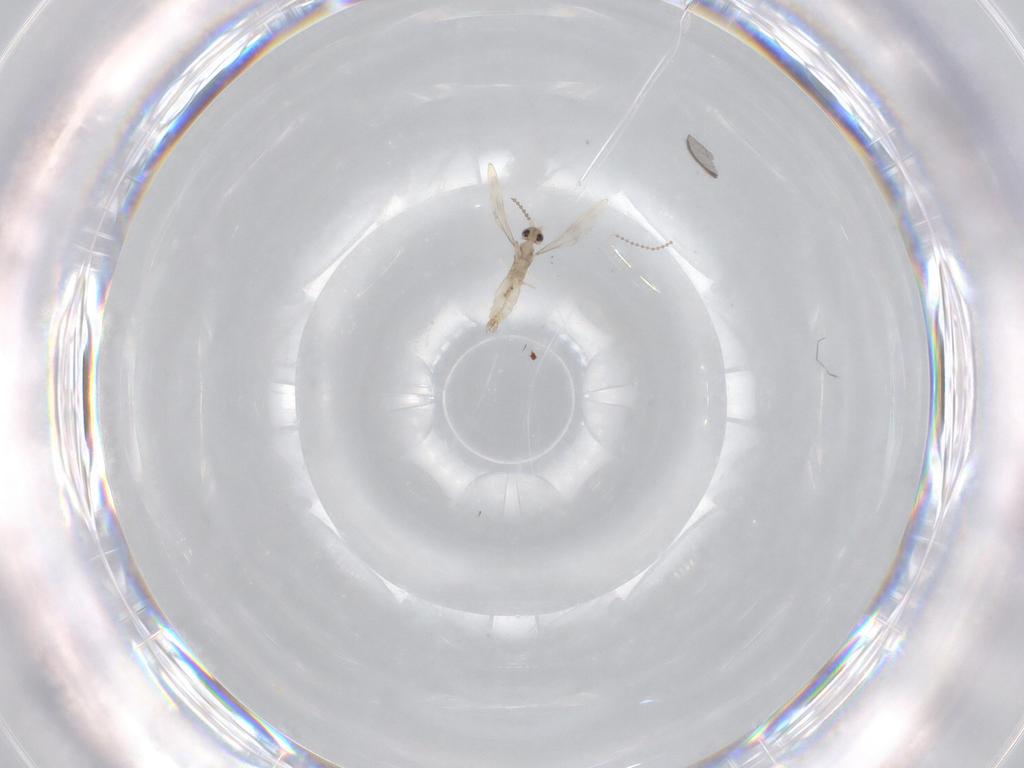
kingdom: Animalia
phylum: Arthropoda
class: Insecta
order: Diptera
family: Cecidomyiidae
